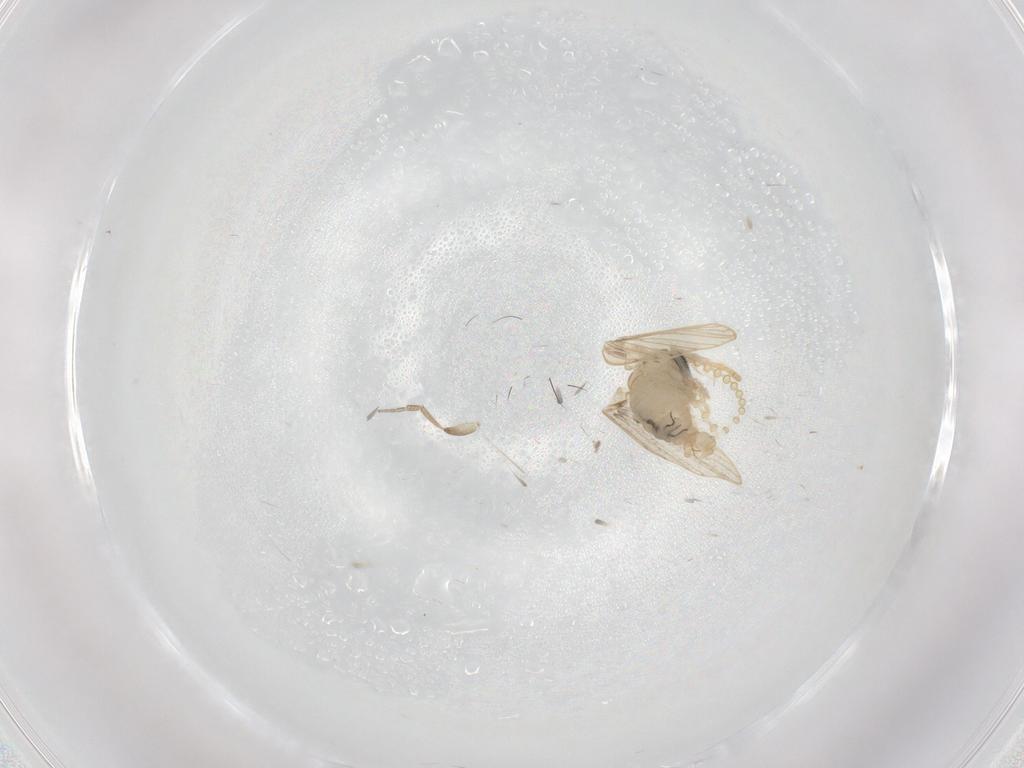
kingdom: Animalia
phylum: Arthropoda
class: Insecta
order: Diptera
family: Psychodidae
